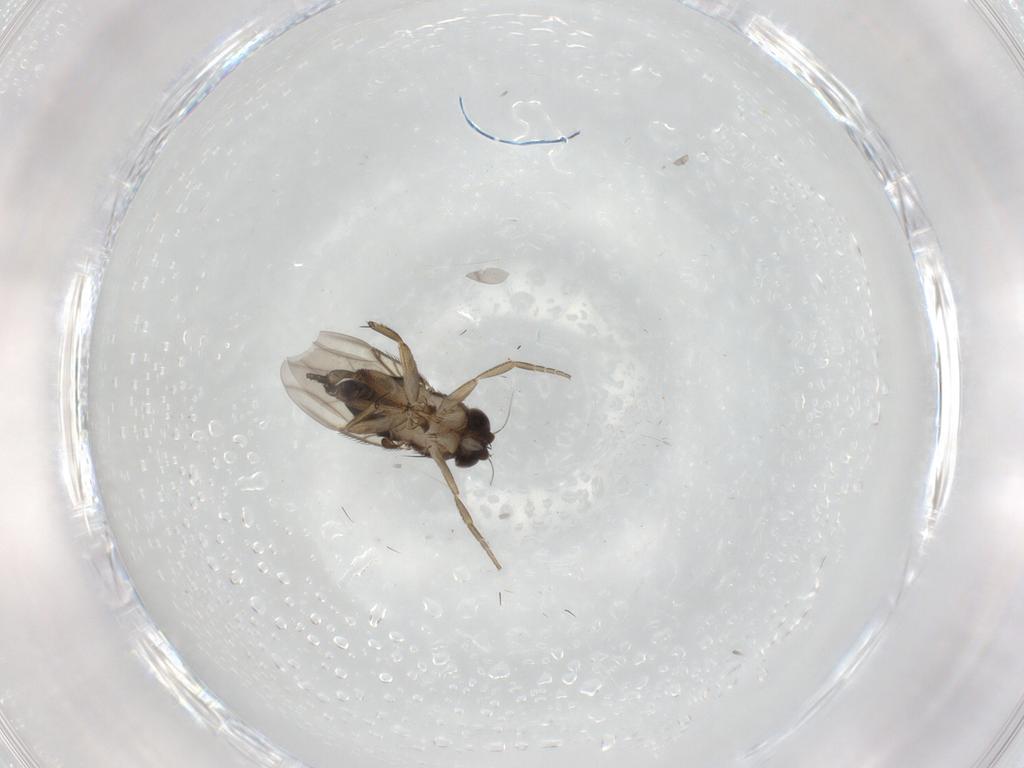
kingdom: Animalia
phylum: Arthropoda
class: Insecta
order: Diptera
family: Phoridae
